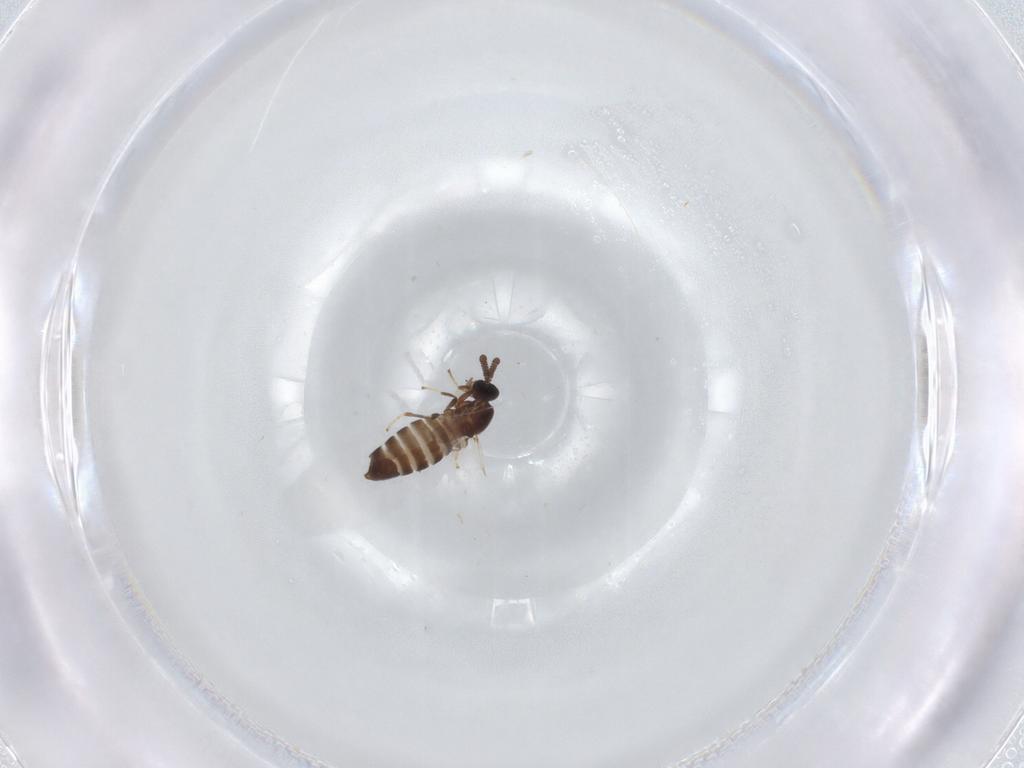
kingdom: Animalia
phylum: Arthropoda
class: Insecta
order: Diptera
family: Scatopsidae
